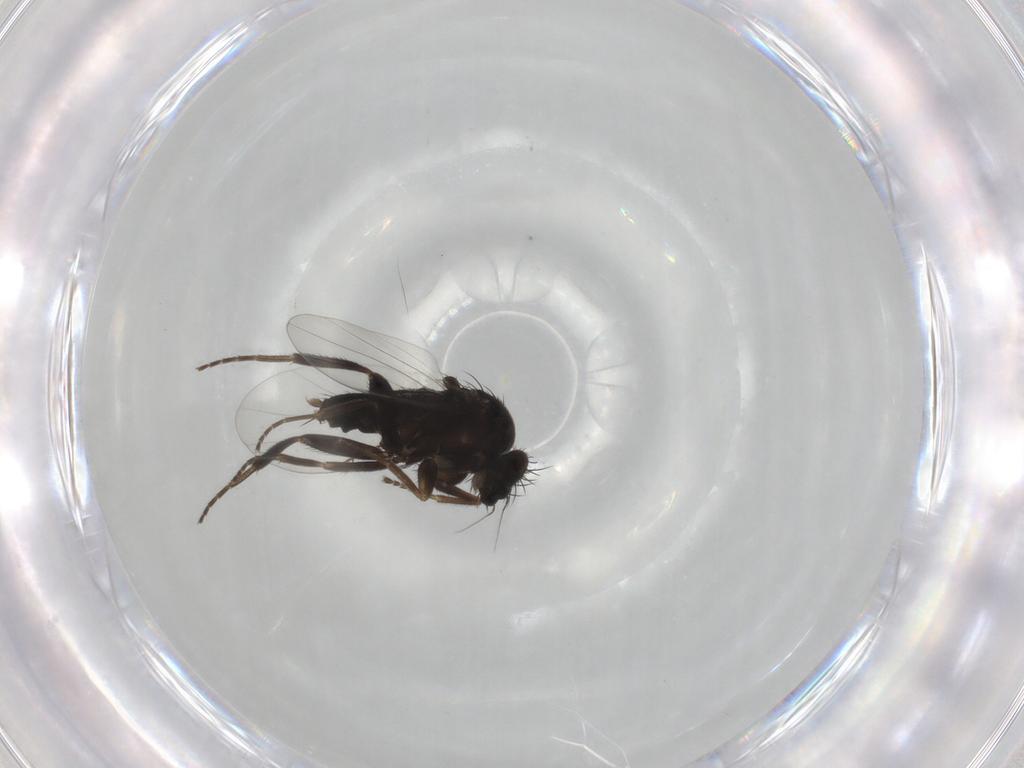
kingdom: Animalia
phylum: Arthropoda
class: Insecta
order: Diptera
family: Phoridae
